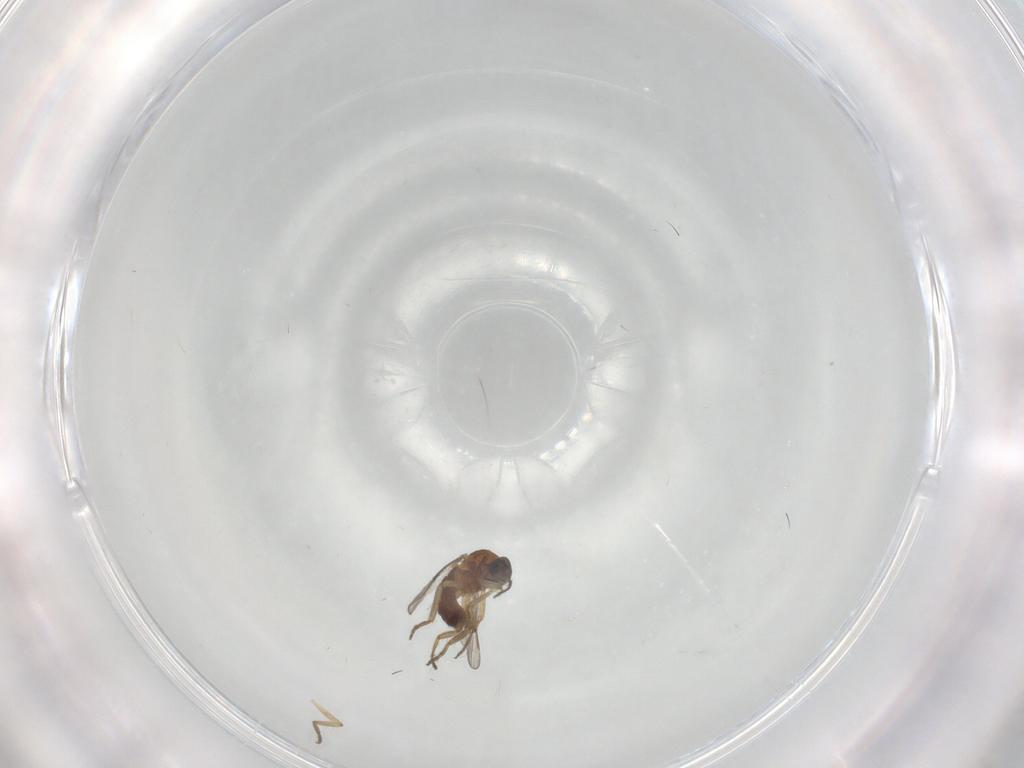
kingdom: Animalia
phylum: Arthropoda
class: Insecta
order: Diptera
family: Ceratopogonidae
